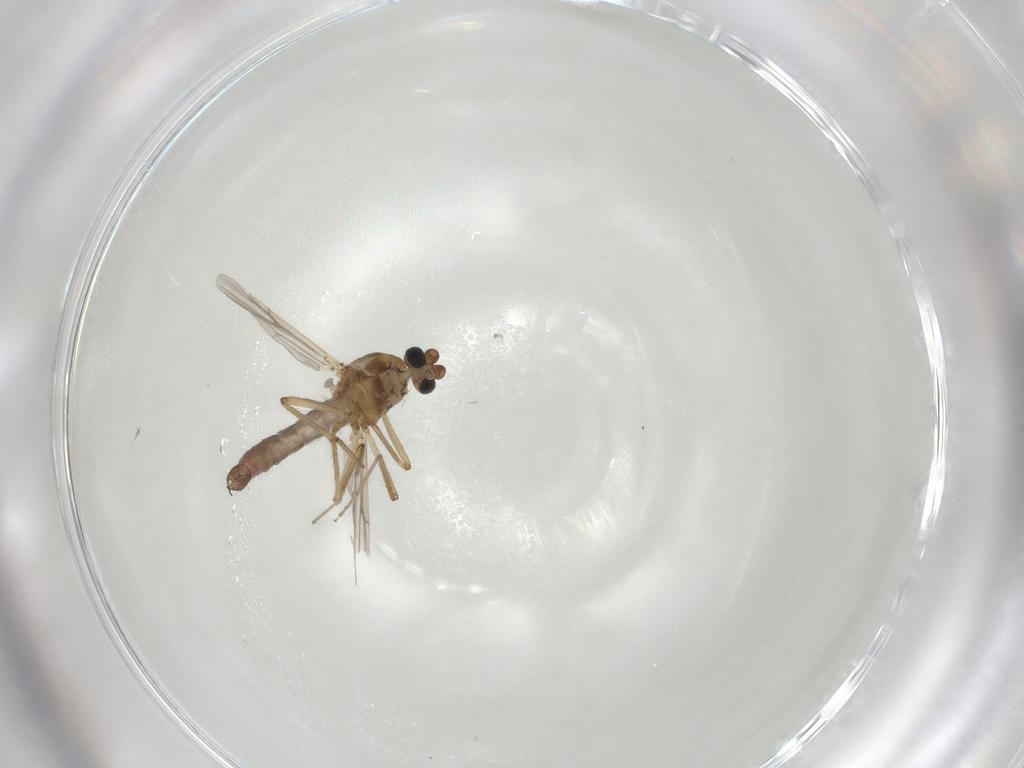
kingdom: Animalia
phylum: Arthropoda
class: Insecta
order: Diptera
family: Ceratopogonidae
